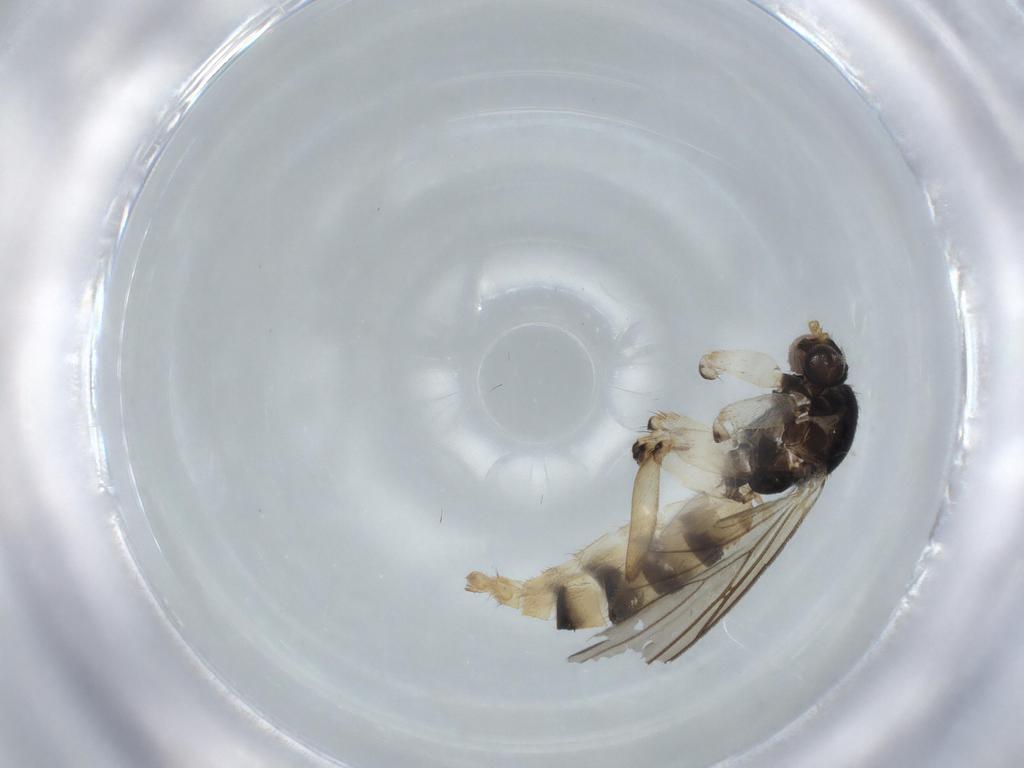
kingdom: Animalia
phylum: Arthropoda
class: Insecta
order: Diptera
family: Mycetophilidae
